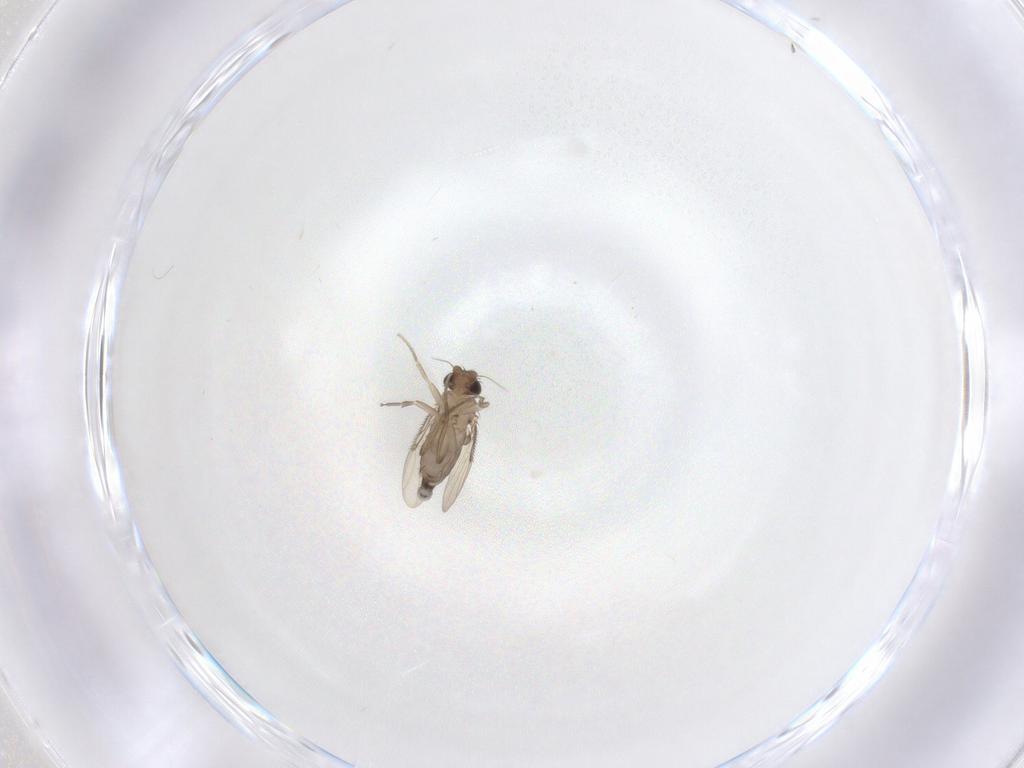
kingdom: Animalia
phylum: Arthropoda
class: Insecta
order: Diptera
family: Phoridae
